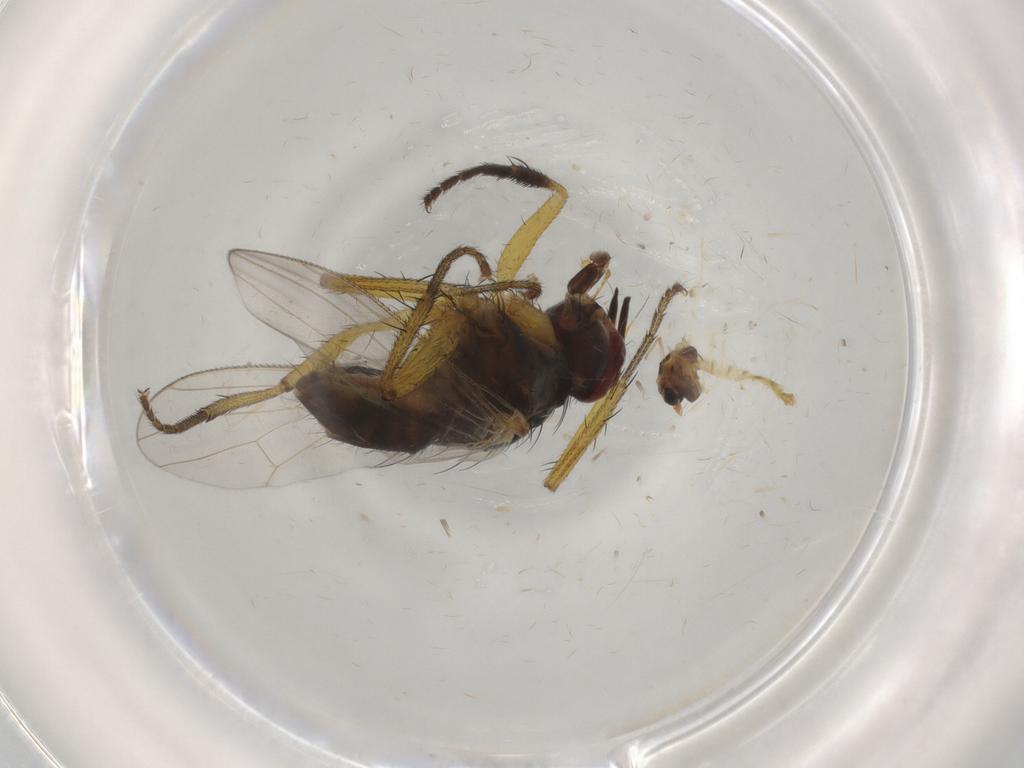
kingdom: Animalia
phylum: Arthropoda
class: Insecta
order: Diptera
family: Chironomidae
